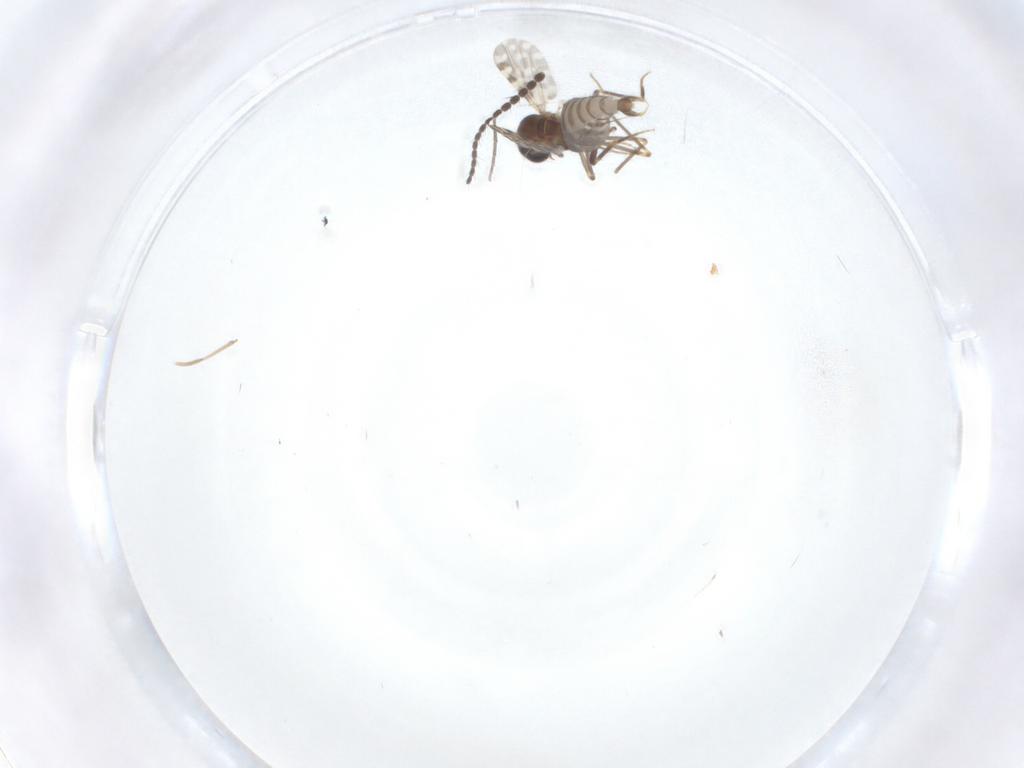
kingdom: Animalia
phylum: Arthropoda
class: Insecta
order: Diptera
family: Ceratopogonidae
